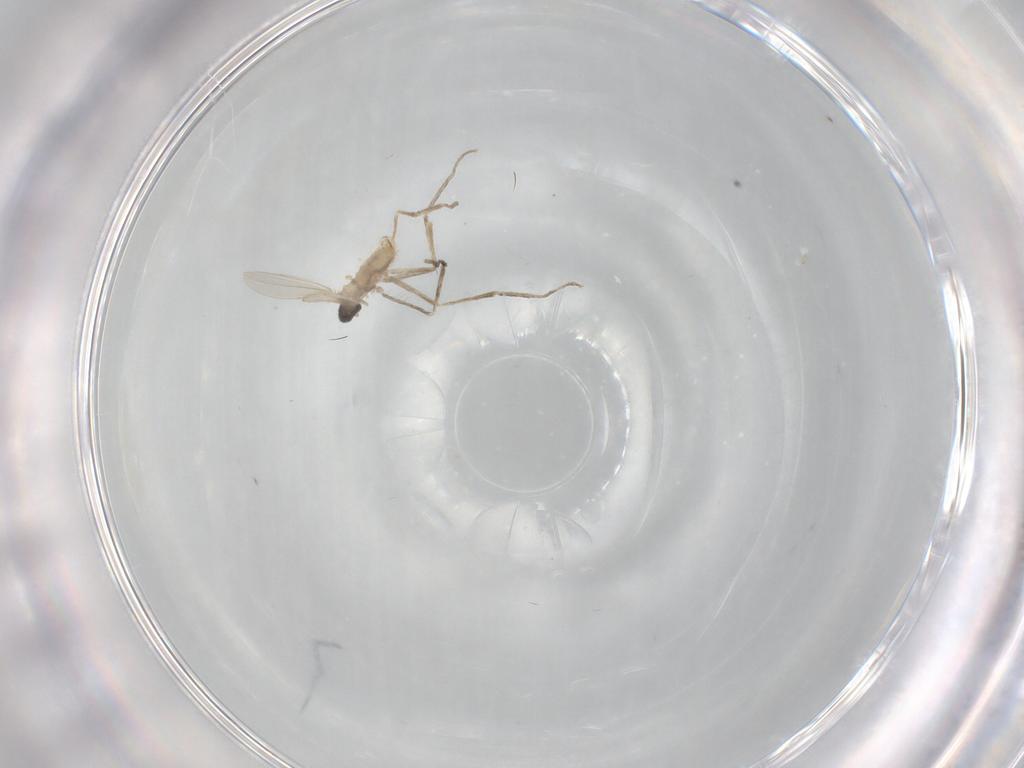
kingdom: Animalia
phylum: Arthropoda
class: Insecta
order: Diptera
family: Cecidomyiidae
